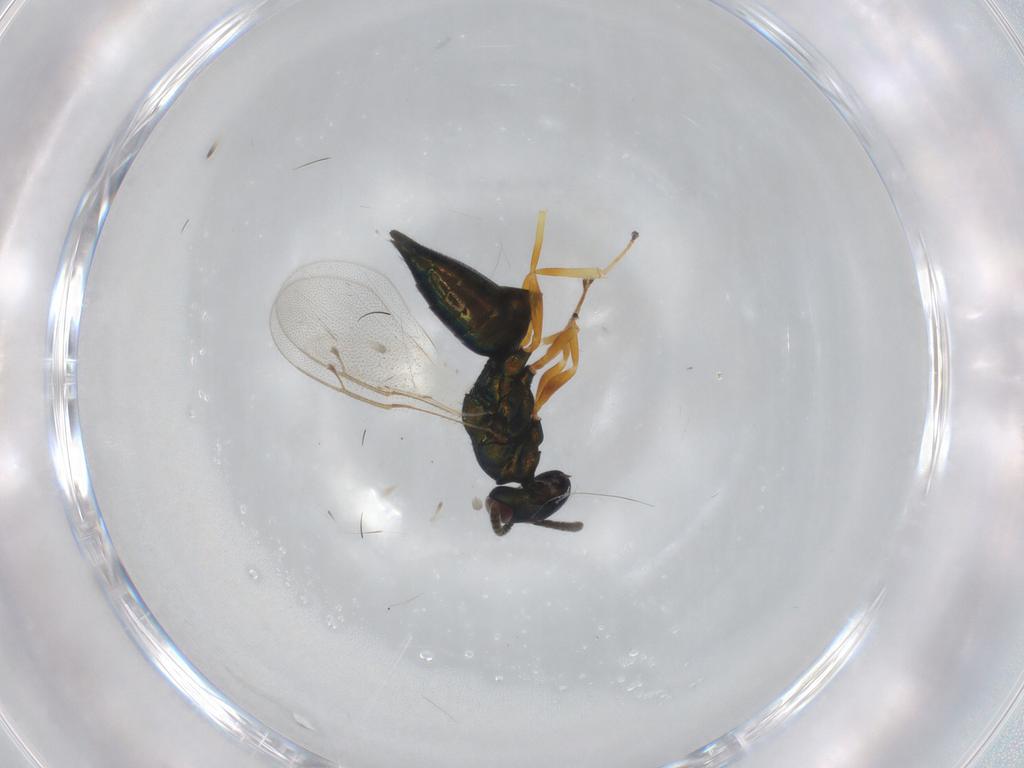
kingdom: Animalia
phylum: Arthropoda
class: Insecta
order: Hymenoptera
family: Pteromalidae
